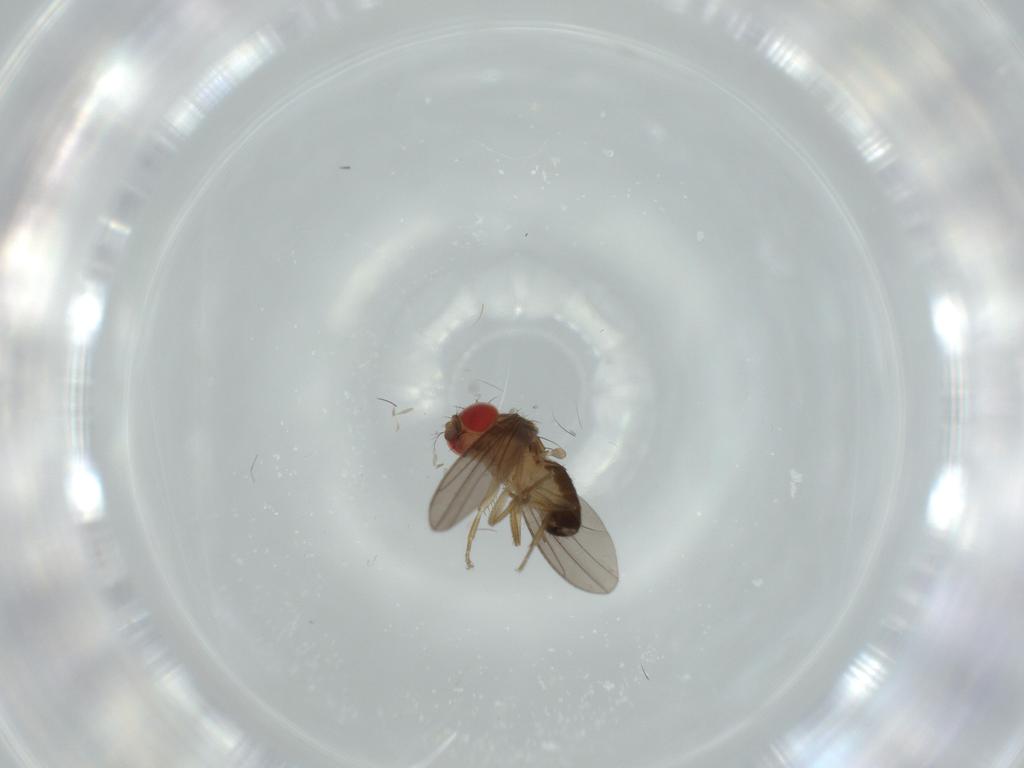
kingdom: Animalia
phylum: Arthropoda
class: Insecta
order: Diptera
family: Drosophilidae
